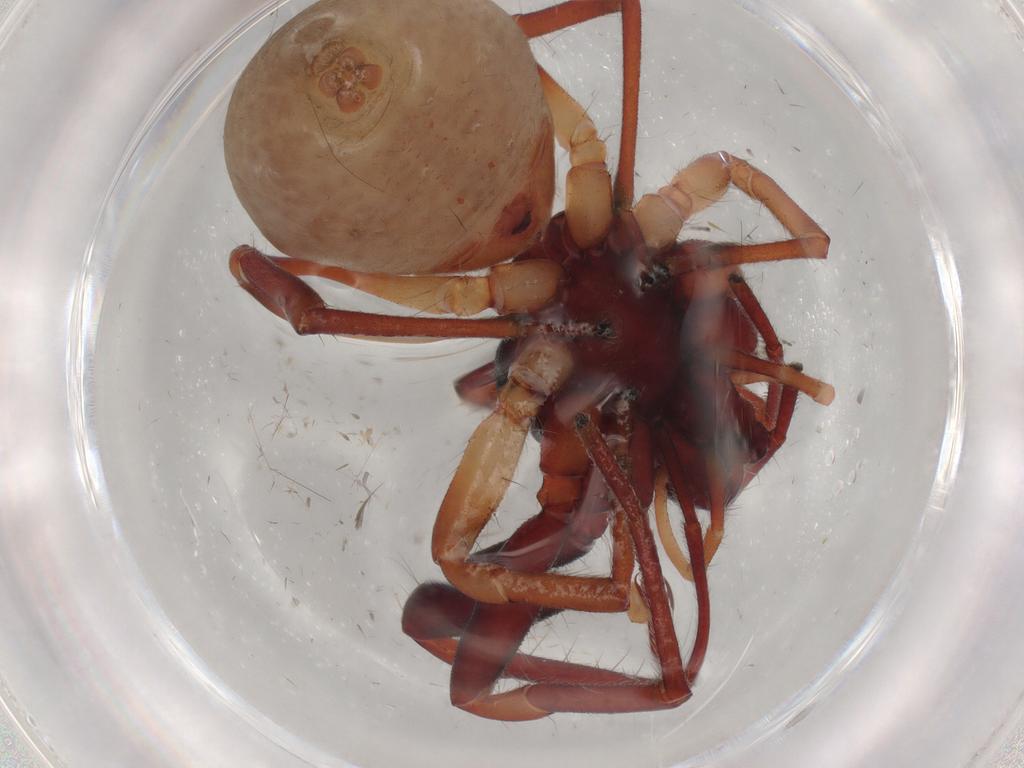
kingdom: Animalia
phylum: Arthropoda
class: Arachnida
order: Araneae
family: Trachelidae
